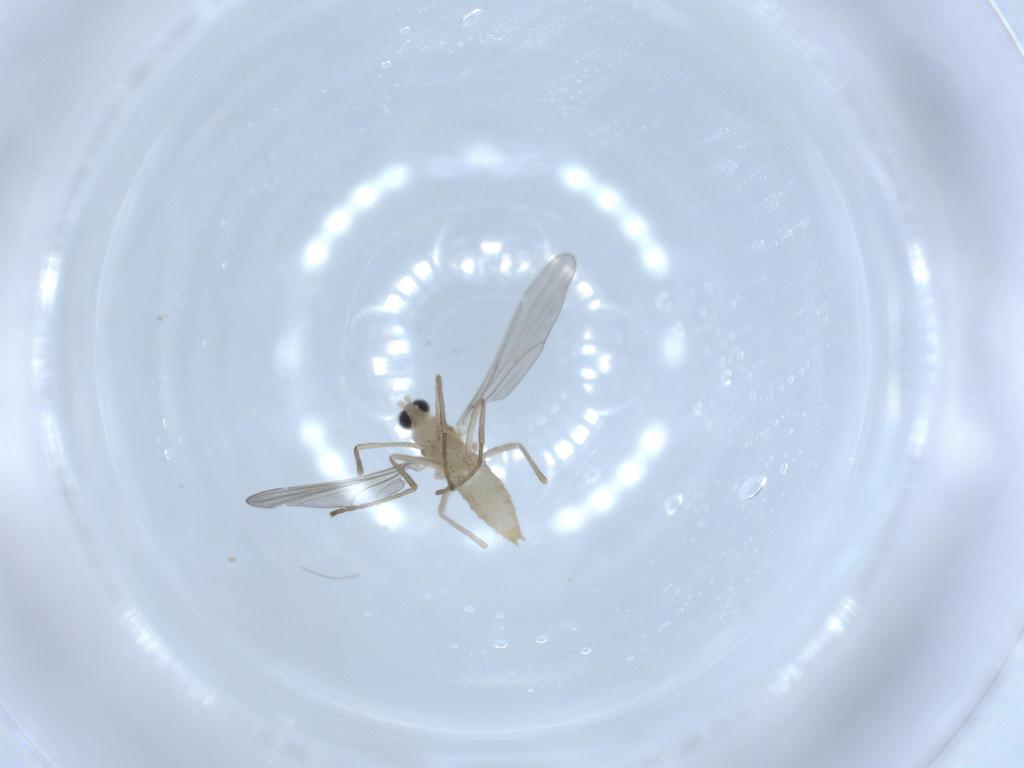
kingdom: Animalia
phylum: Arthropoda
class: Insecta
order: Diptera
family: Cecidomyiidae
